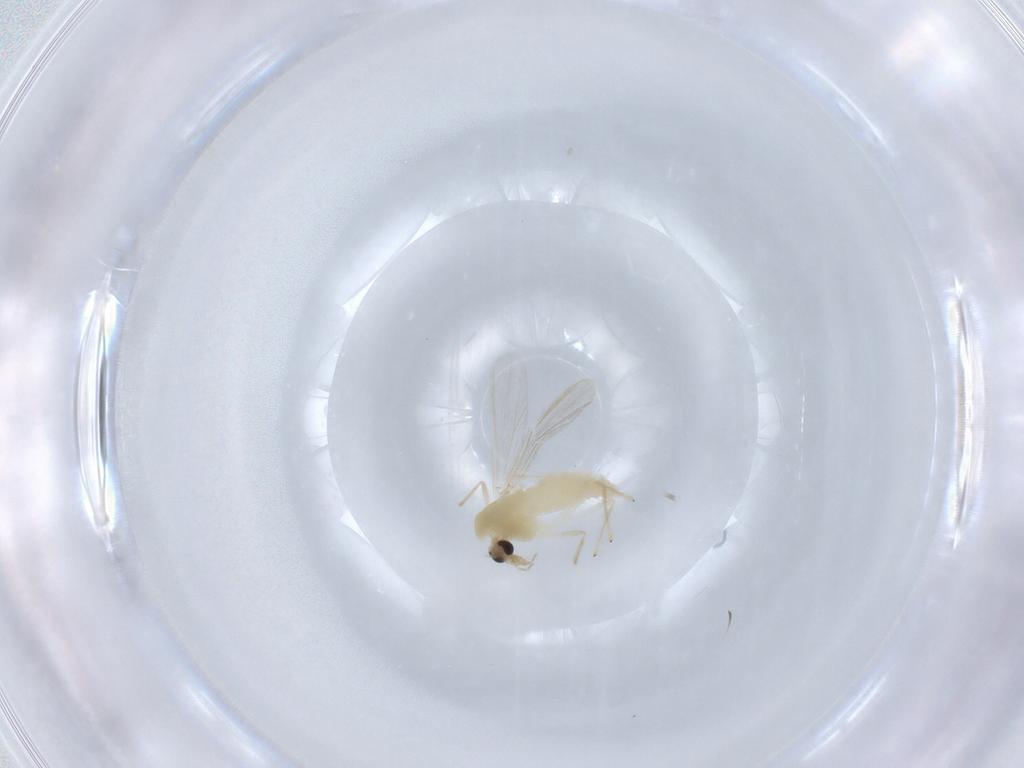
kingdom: Animalia
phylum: Arthropoda
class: Insecta
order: Diptera
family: Chironomidae
